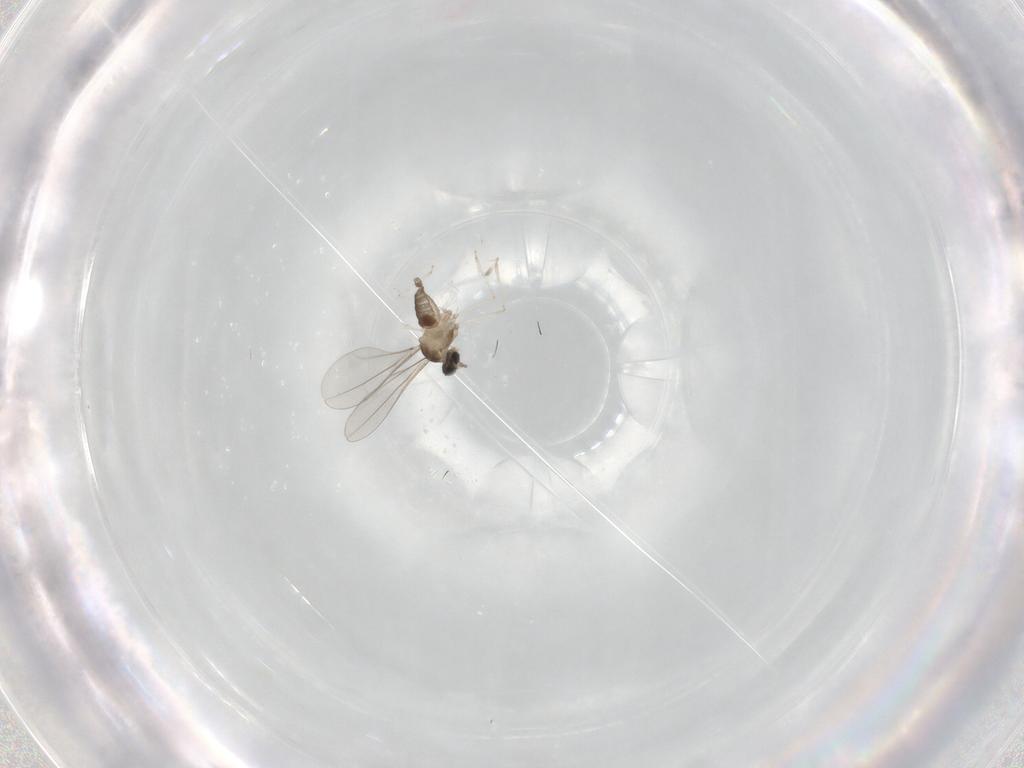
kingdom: Animalia
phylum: Arthropoda
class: Insecta
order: Diptera
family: Cecidomyiidae
